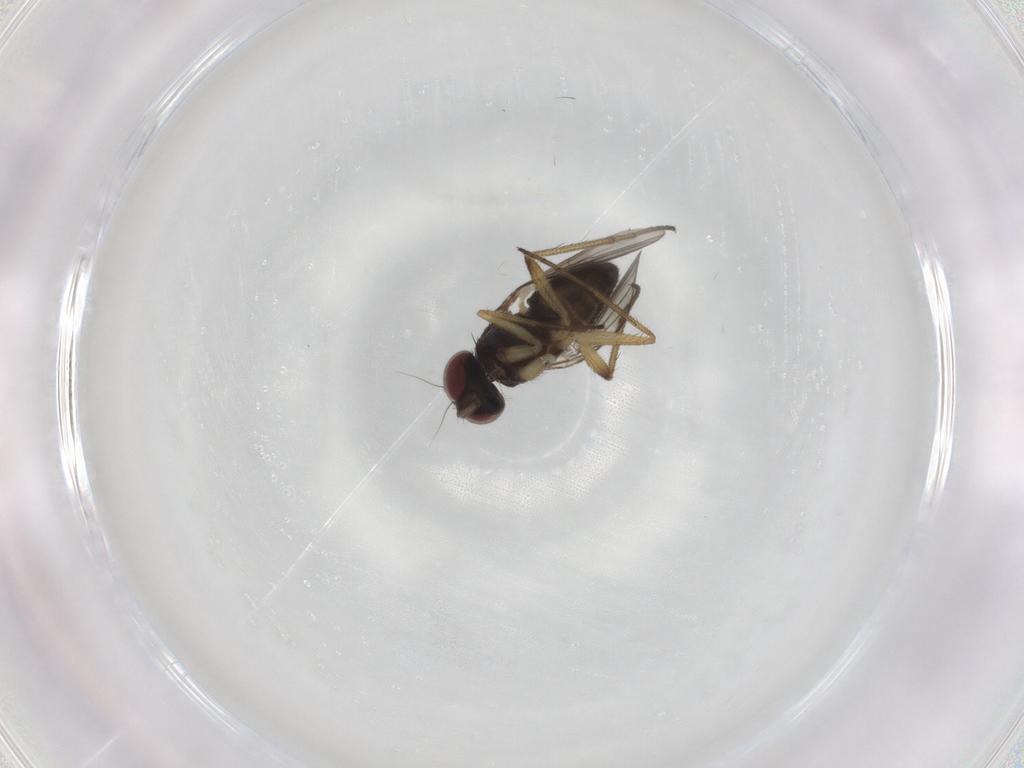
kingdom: Animalia
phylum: Arthropoda
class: Insecta
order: Diptera
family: Dolichopodidae
